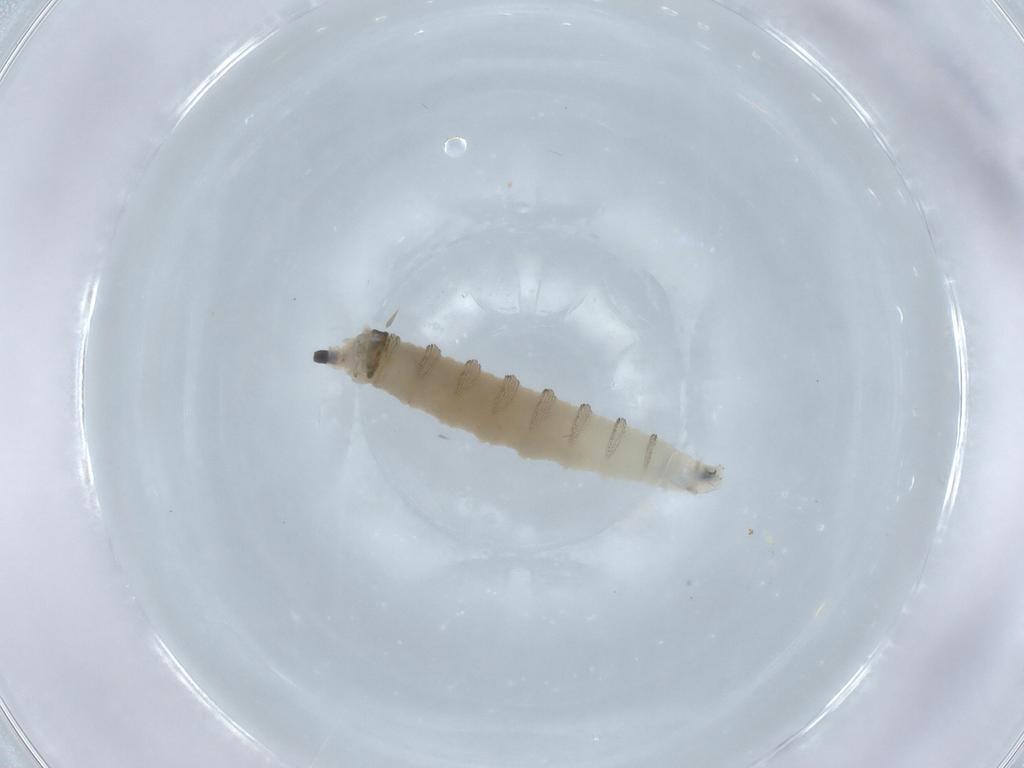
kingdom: Animalia
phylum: Arthropoda
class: Insecta
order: Diptera
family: Drosophilidae
